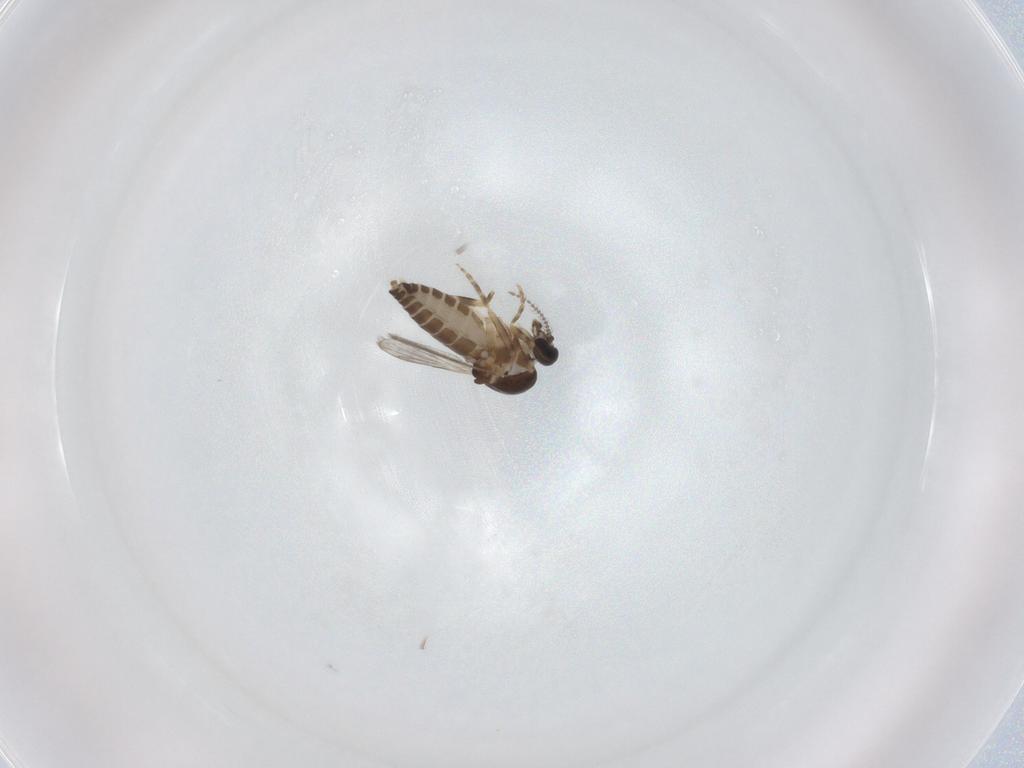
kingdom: Animalia
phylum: Arthropoda
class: Insecta
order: Diptera
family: Ceratopogonidae
